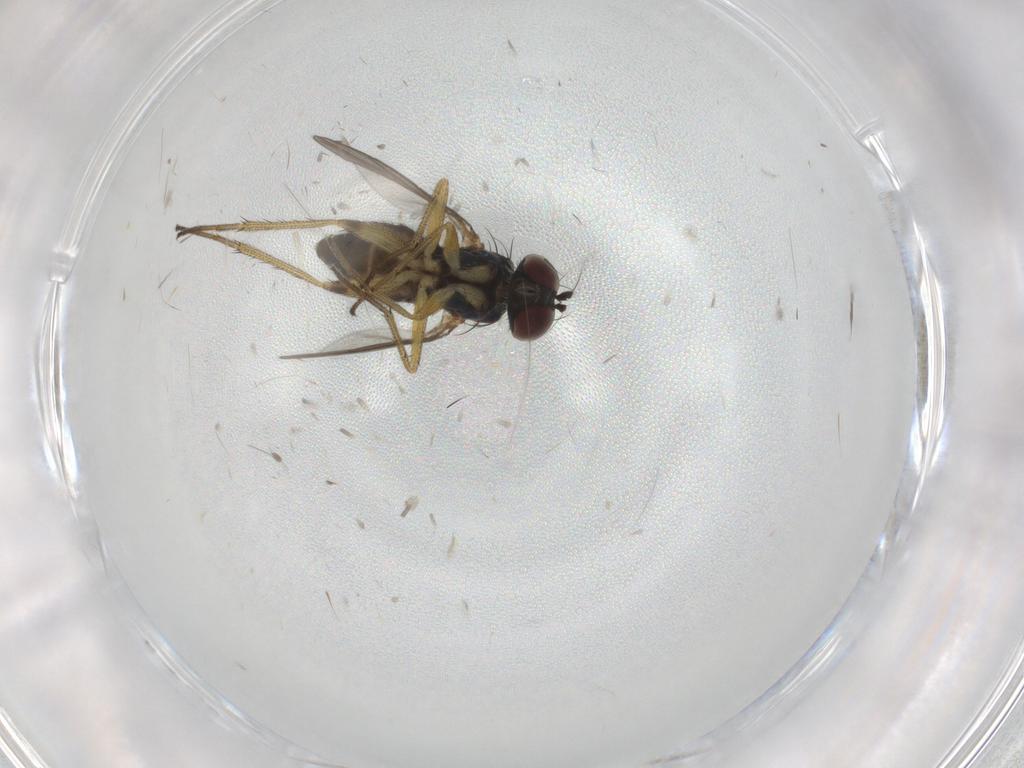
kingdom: Animalia
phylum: Arthropoda
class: Insecta
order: Diptera
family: Dolichopodidae
